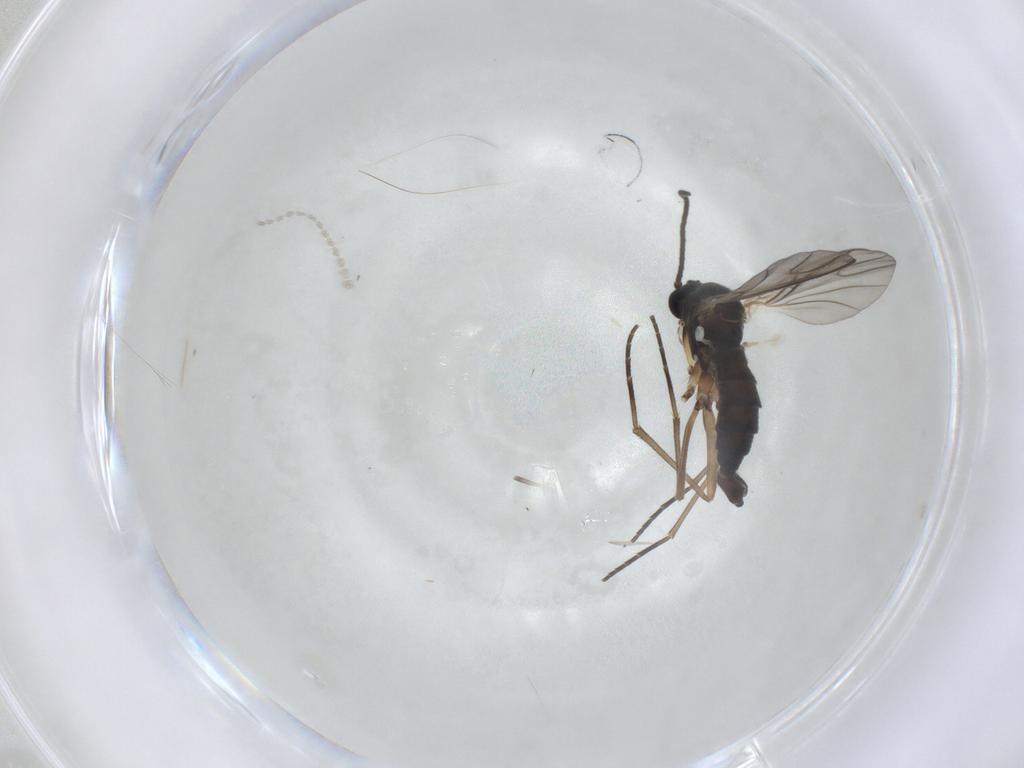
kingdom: Animalia
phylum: Arthropoda
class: Insecta
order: Diptera
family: Sciaridae
